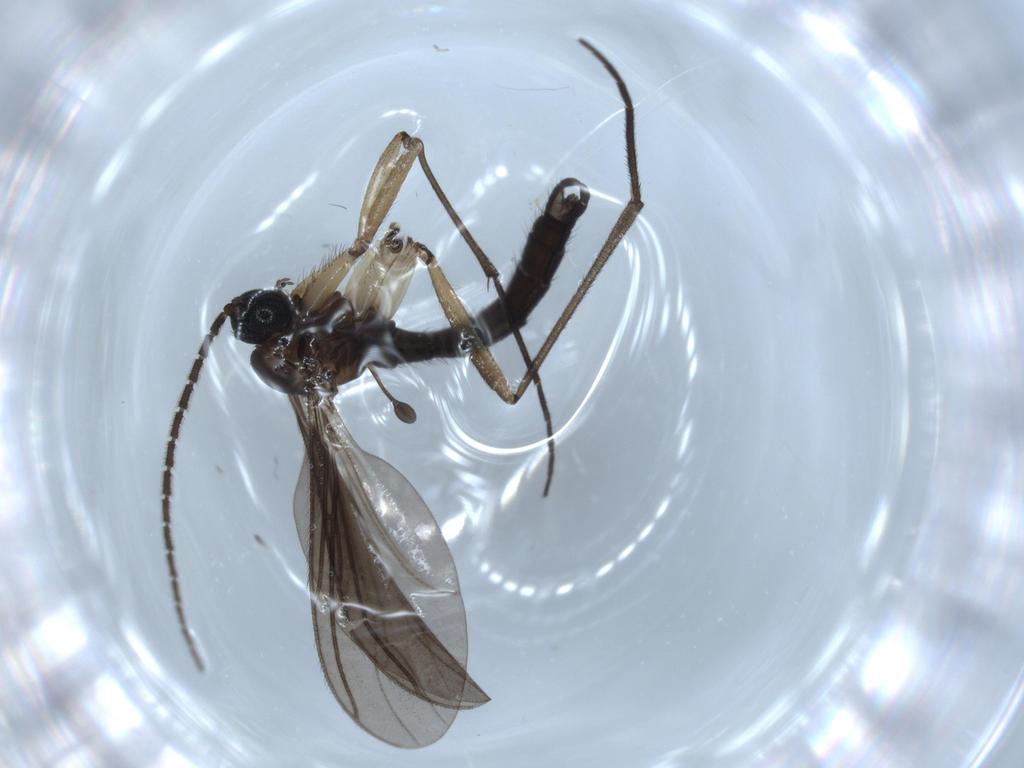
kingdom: Animalia
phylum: Arthropoda
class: Insecta
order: Diptera
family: Sciaridae
